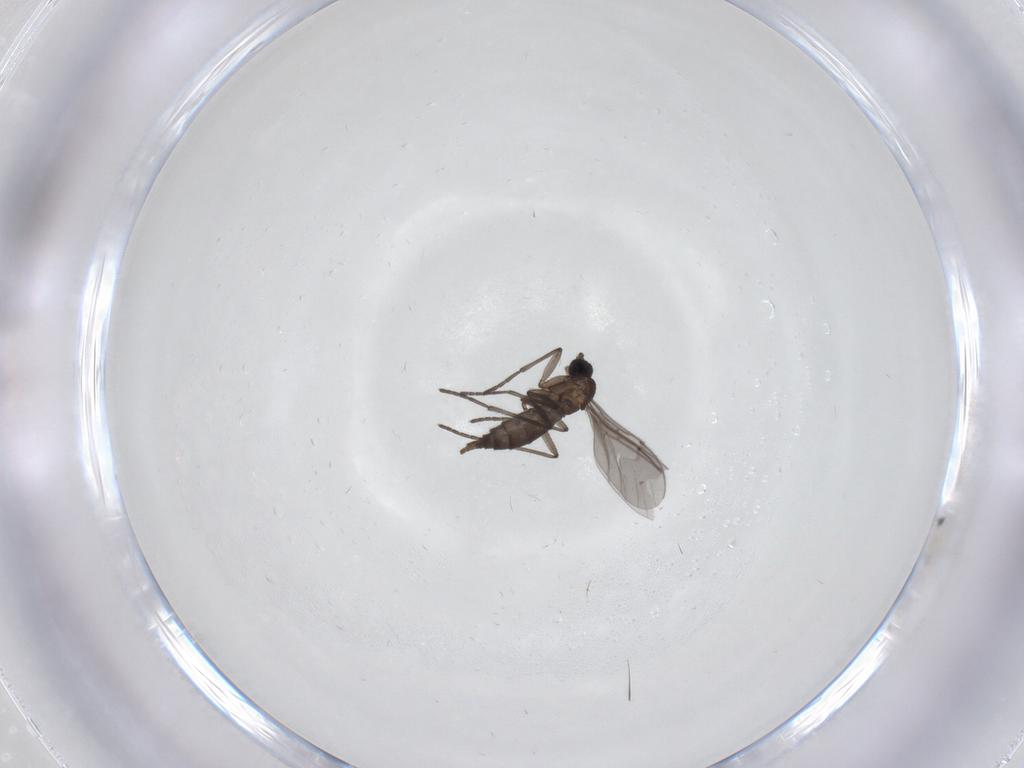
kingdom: Animalia
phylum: Arthropoda
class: Insecta
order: Diptera
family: Sciaridae
